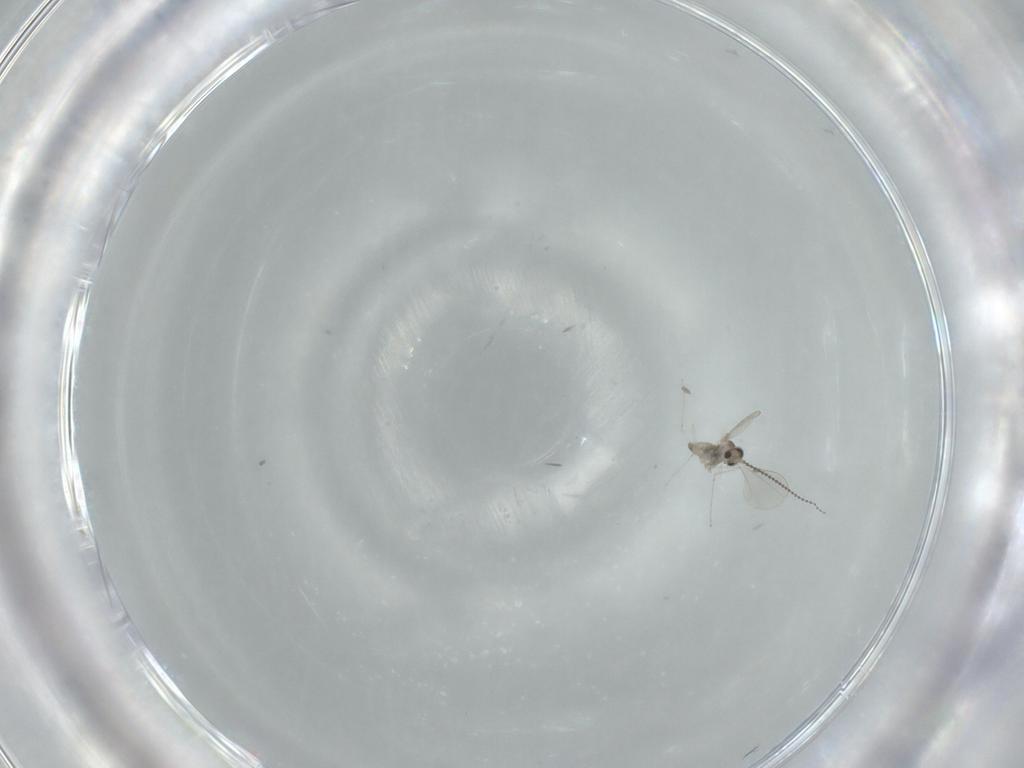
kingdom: Animalia
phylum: Arthropoda
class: Insecta
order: Diptera
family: Cecidomyiidae
